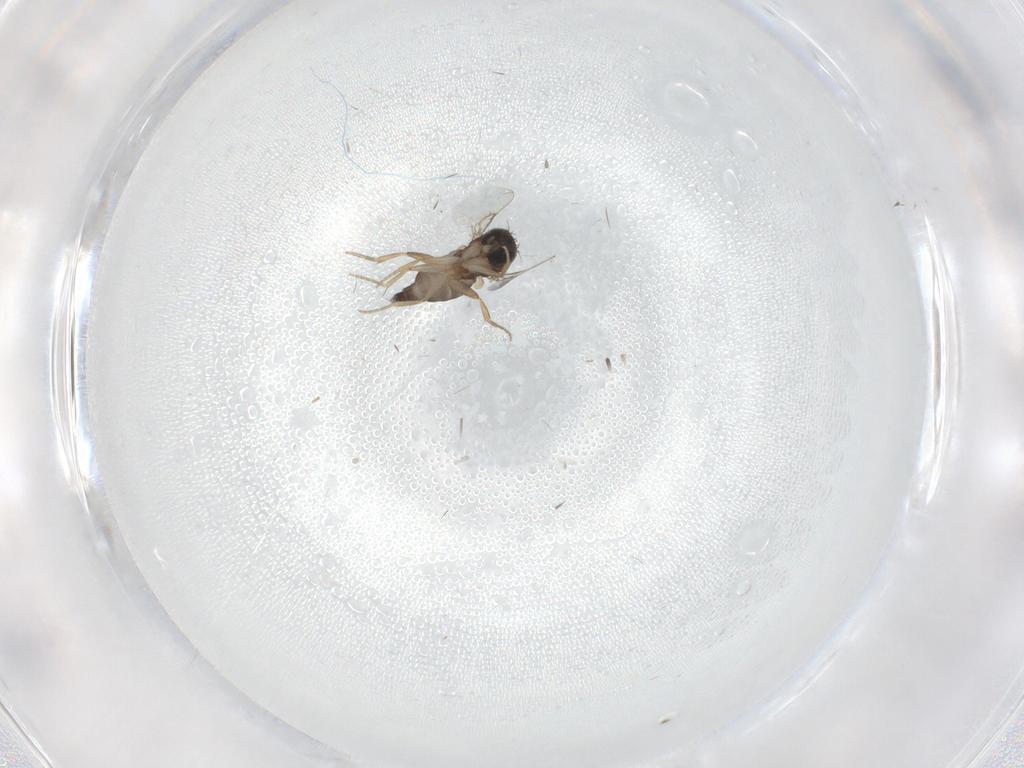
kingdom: Animalia
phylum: Arthropoda
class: Insecta
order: Diptera
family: Phoridae
